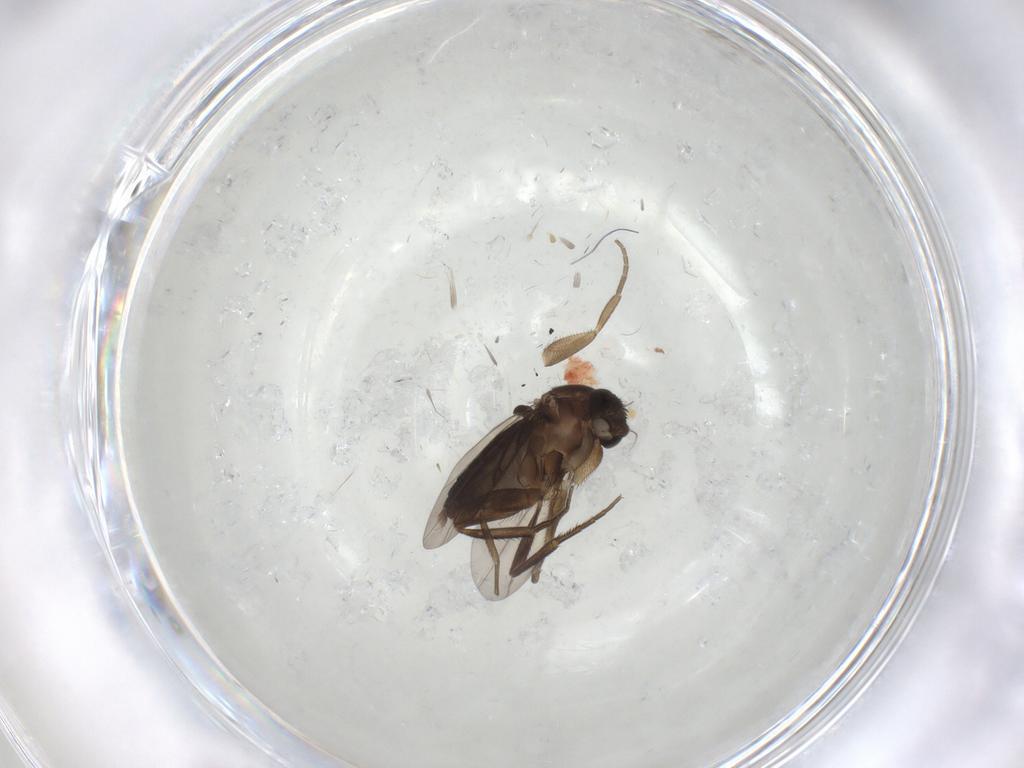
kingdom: Animalia
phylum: Arthropoda
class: Insecta
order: Diptera
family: Phoridae
